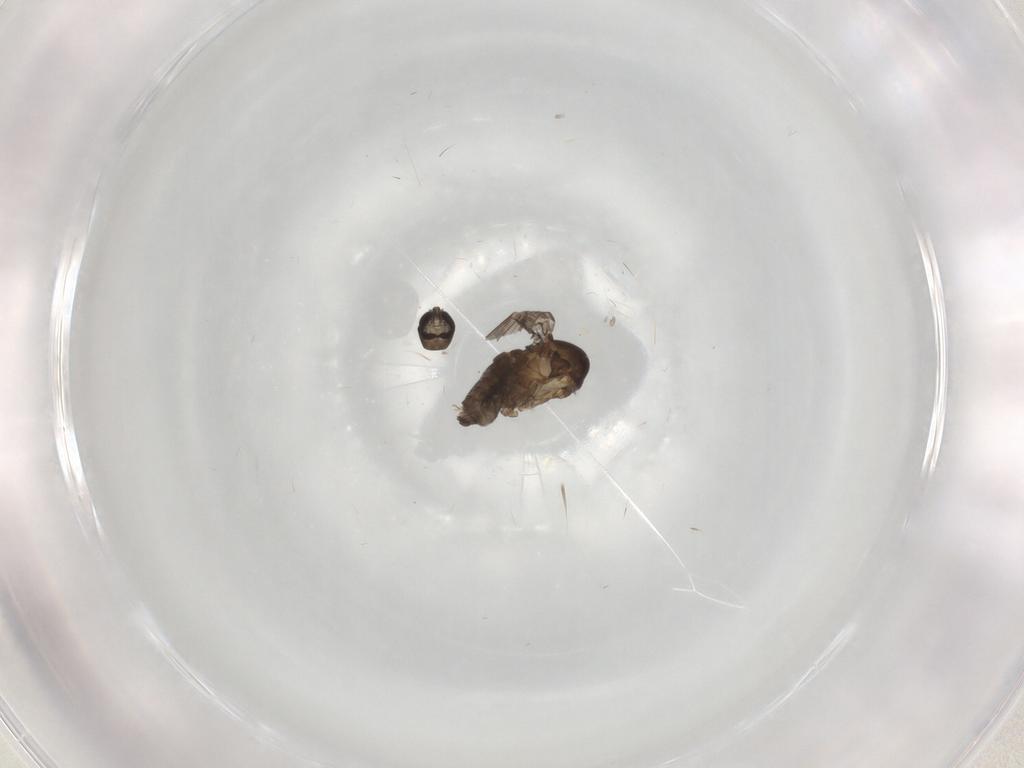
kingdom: Animalia
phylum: Arthropoda
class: Insecta
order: Diptera
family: Psychodidae
